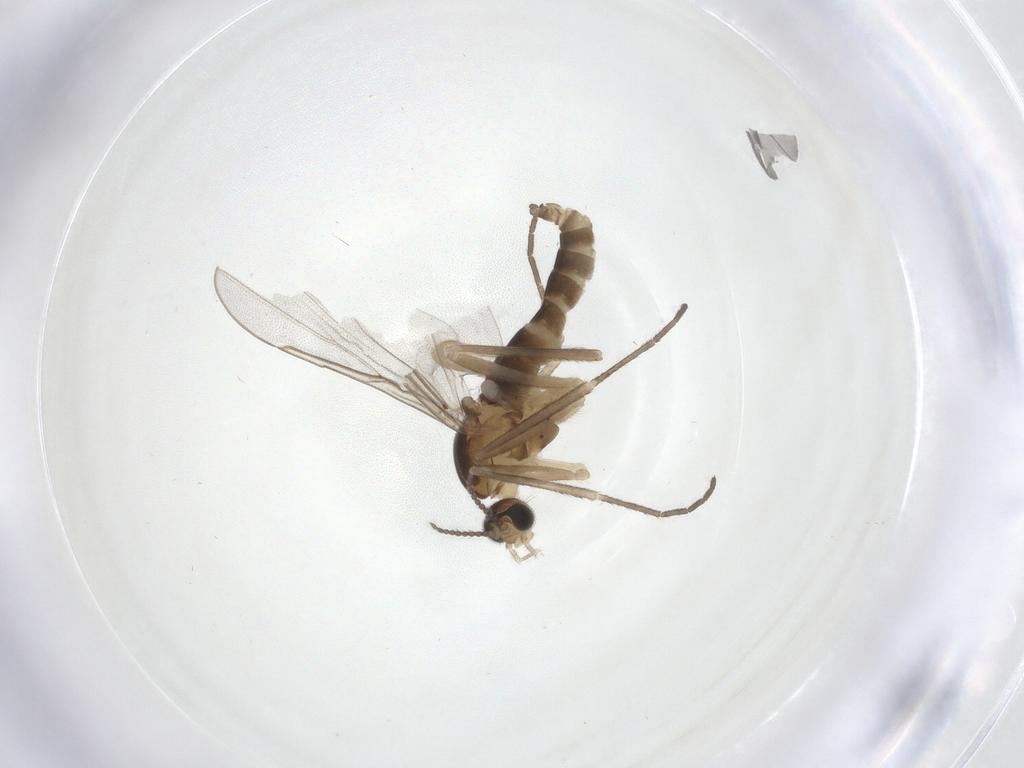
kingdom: Animalia
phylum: Arthropoda
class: Insecta
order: Diptera
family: Cecidomyiidae
